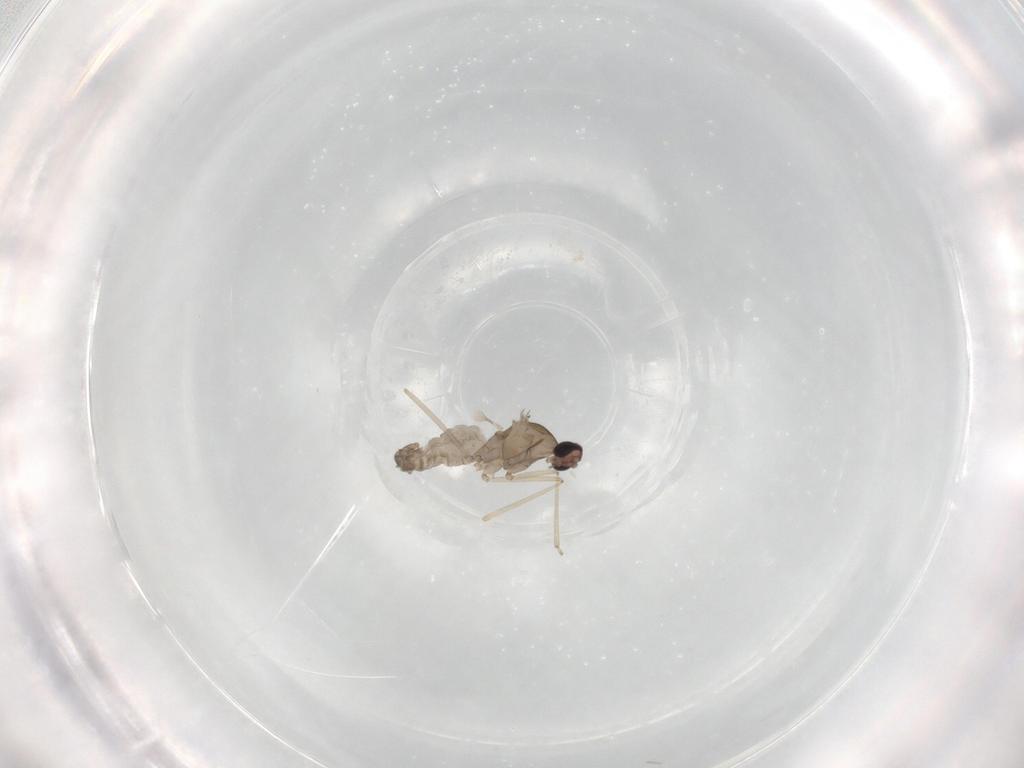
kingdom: Animalia
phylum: Arthropoda
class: Insecta
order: Diptera
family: Cecidomyiidae
